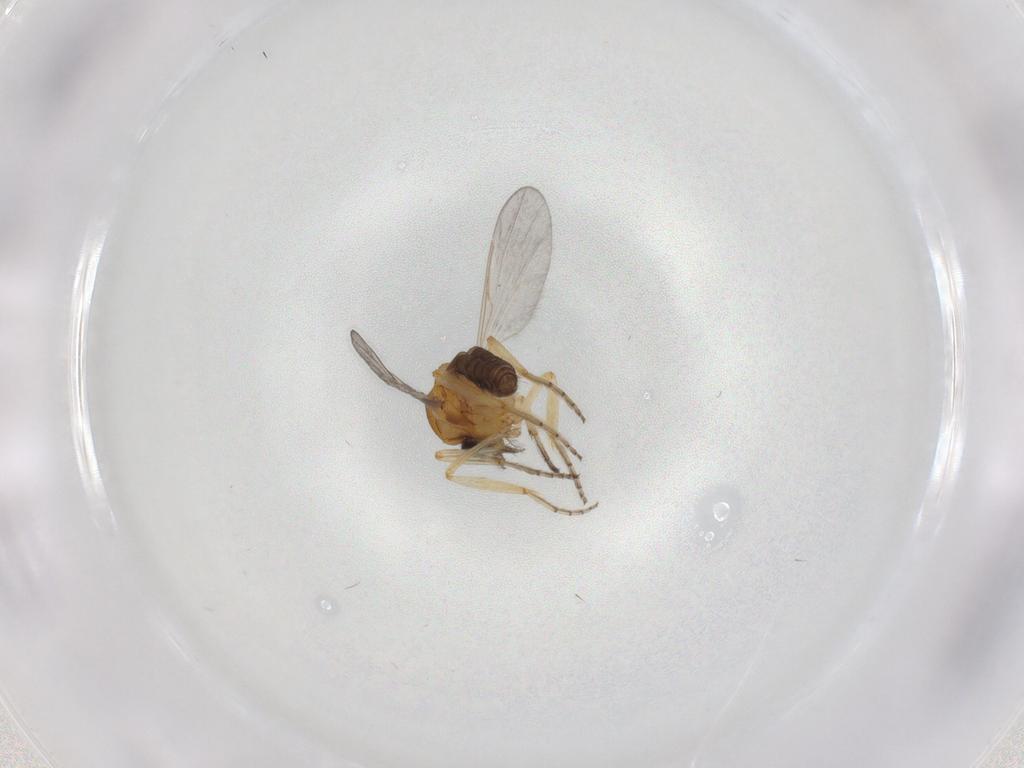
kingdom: Animalia
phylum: Arthropoda
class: Insecta
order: Diptera
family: Ceratopogonidae
